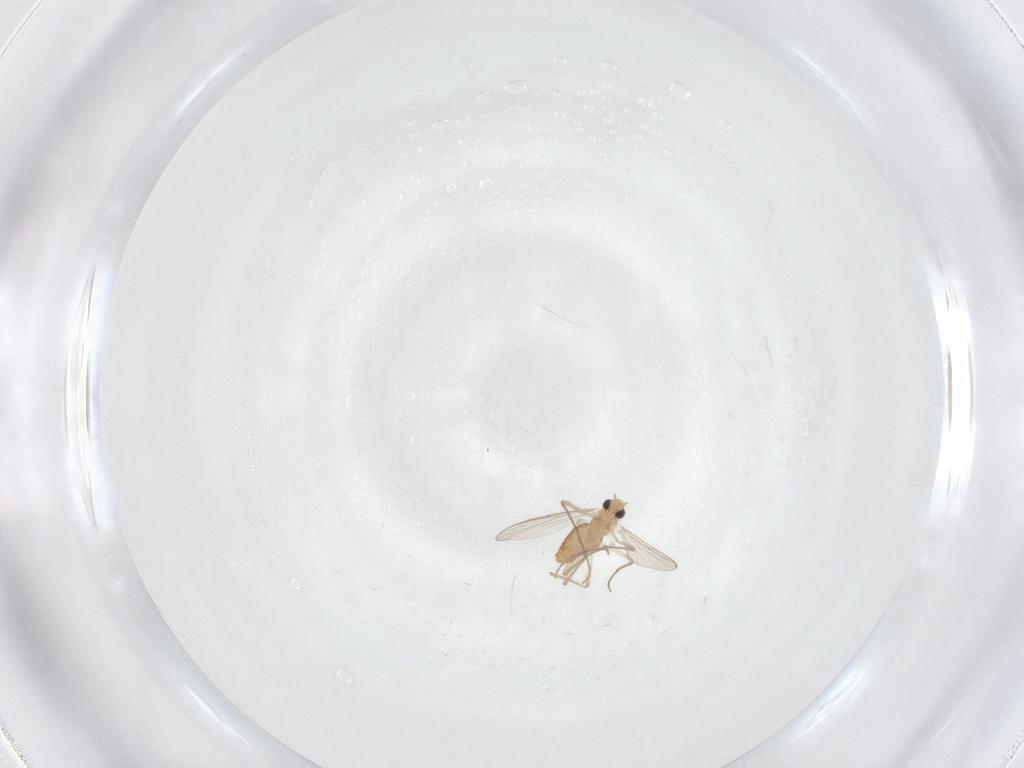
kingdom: Animalia
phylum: Arthropoda
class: Insecta
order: Diptera
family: Chironomidae
